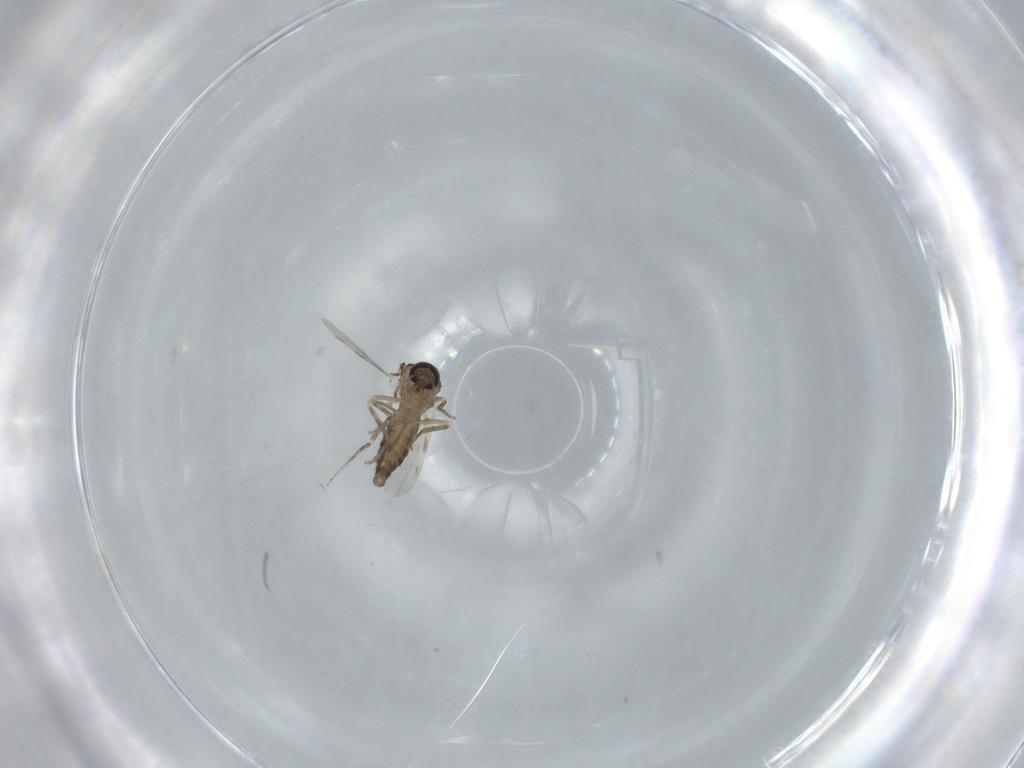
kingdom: Animalia
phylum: Arthropoda
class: Insecta
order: Diptera
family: Ceratopogonidae
